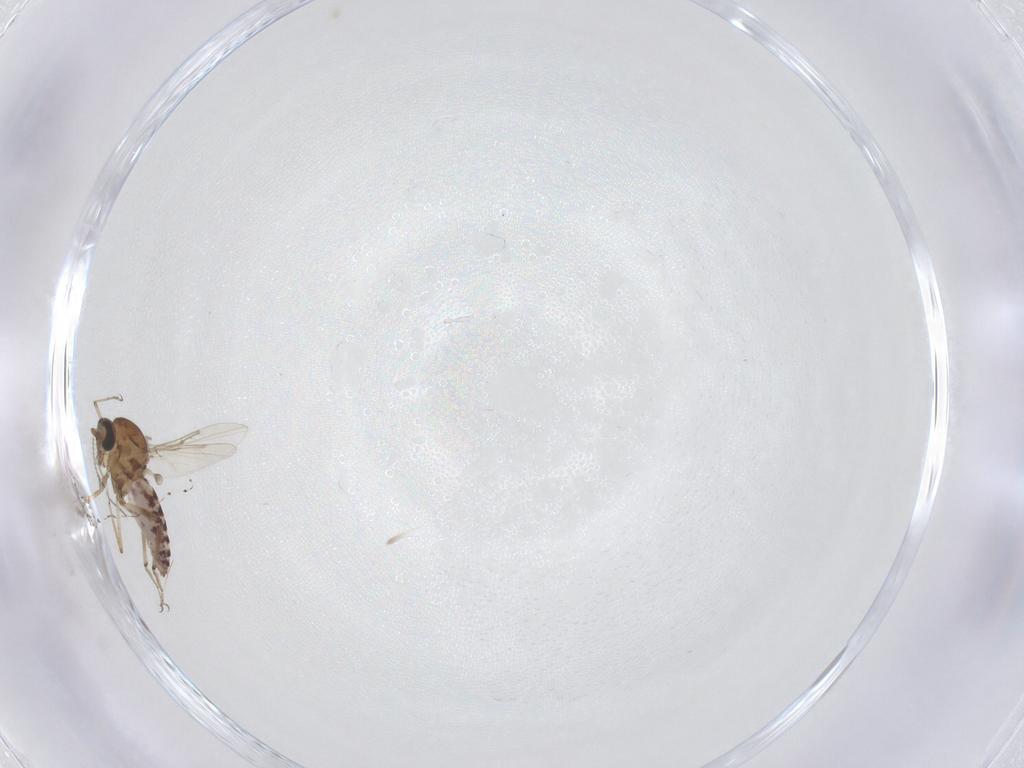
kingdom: Animalia
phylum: Arthropoda
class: Insecta
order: Diptera
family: Limoniidae
